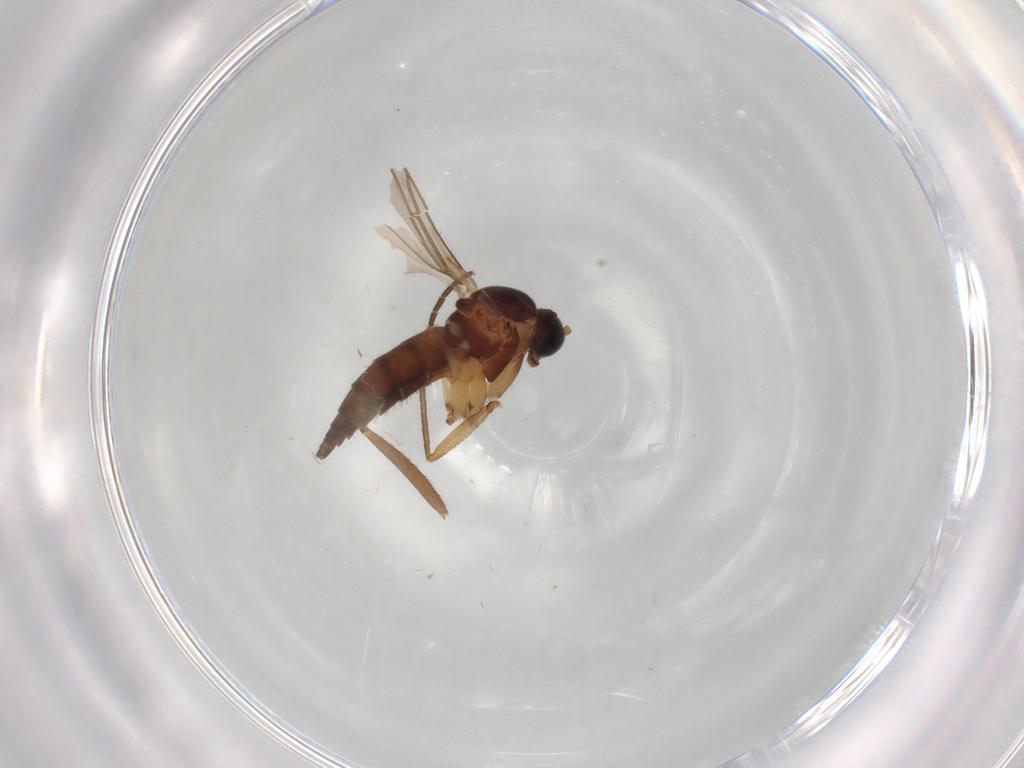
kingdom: Animalia
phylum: Arthropoda
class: Insecta
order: Diptera
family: Sciaridae
